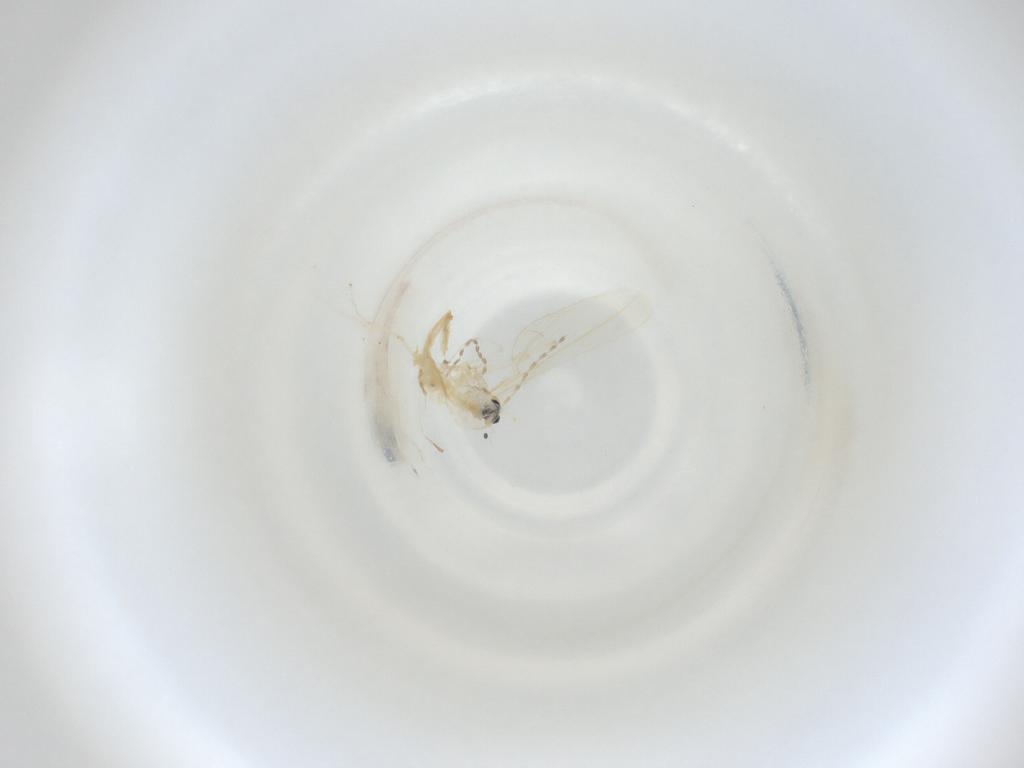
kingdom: Animalia
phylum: Arthropoda
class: Insecta
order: Diptera
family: Cecidomyiidae
